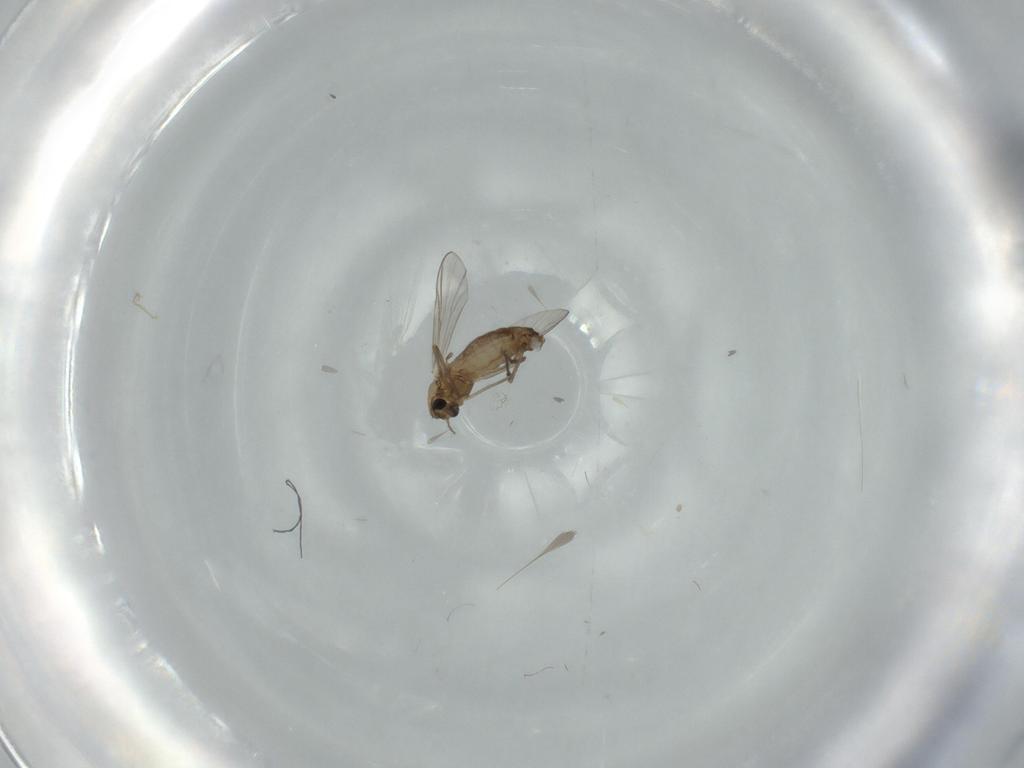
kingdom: Animalia
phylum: Arthropoda
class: Insecta
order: Diptera
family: Chironomidae
